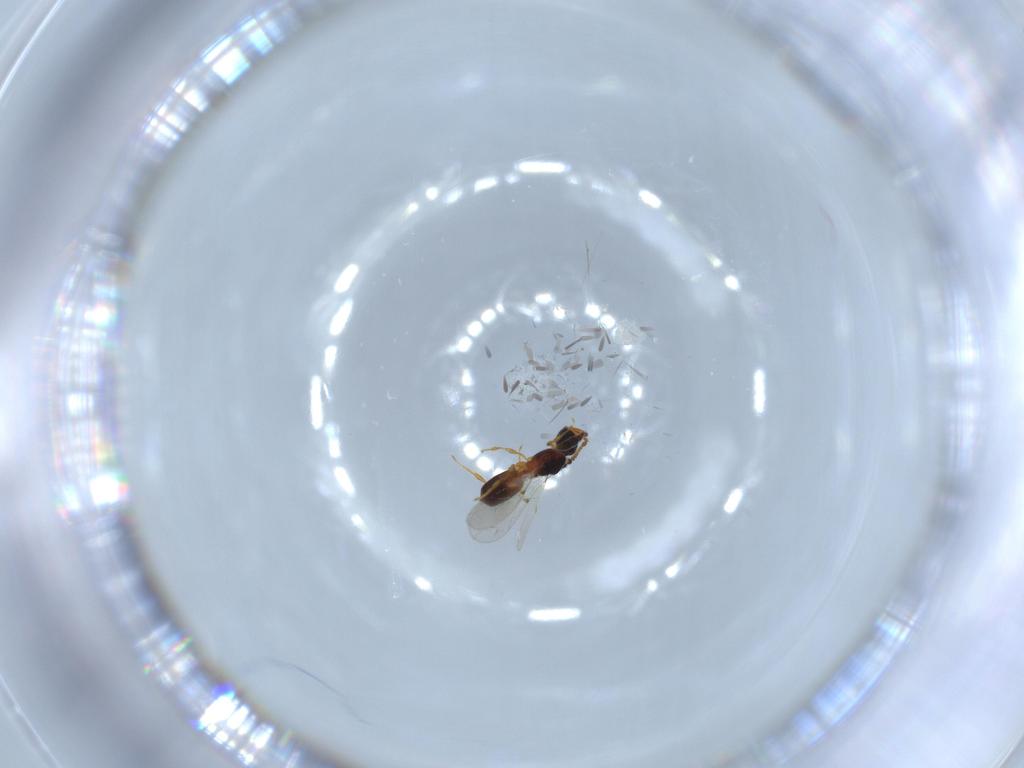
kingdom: Animalia
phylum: Arthropoda
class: Insecta
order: Hymenoptera
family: Diapriidae
